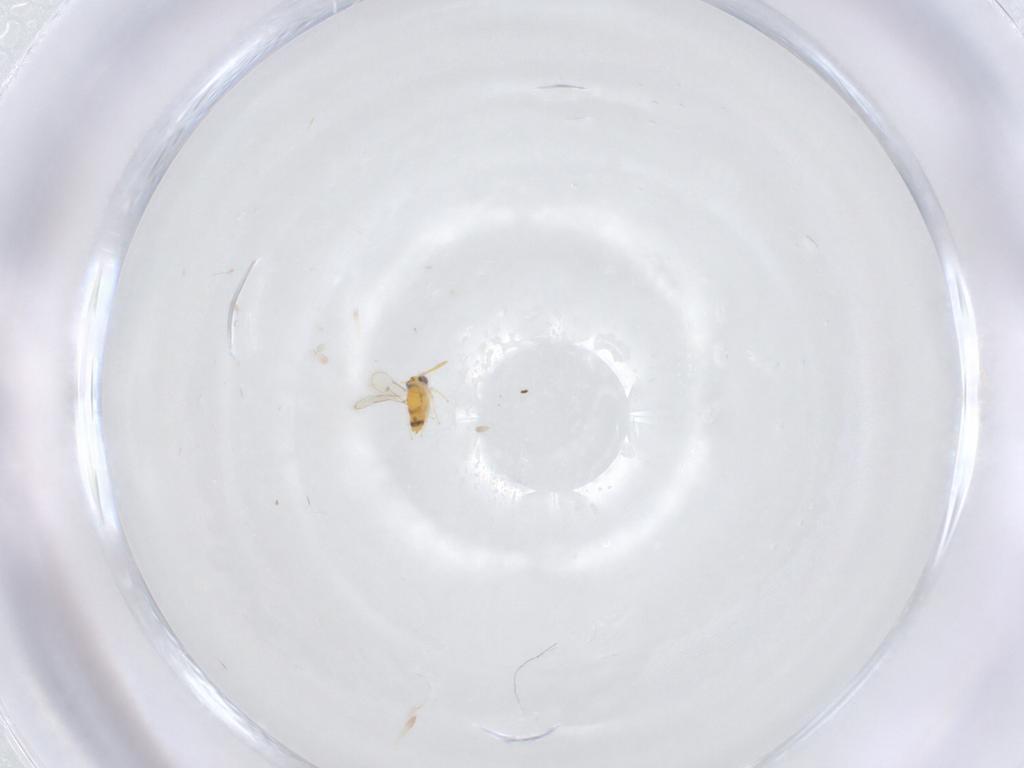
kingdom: Animalia
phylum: Arthropoda
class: Insecta
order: Hymenoptera
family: Aphelinidae
